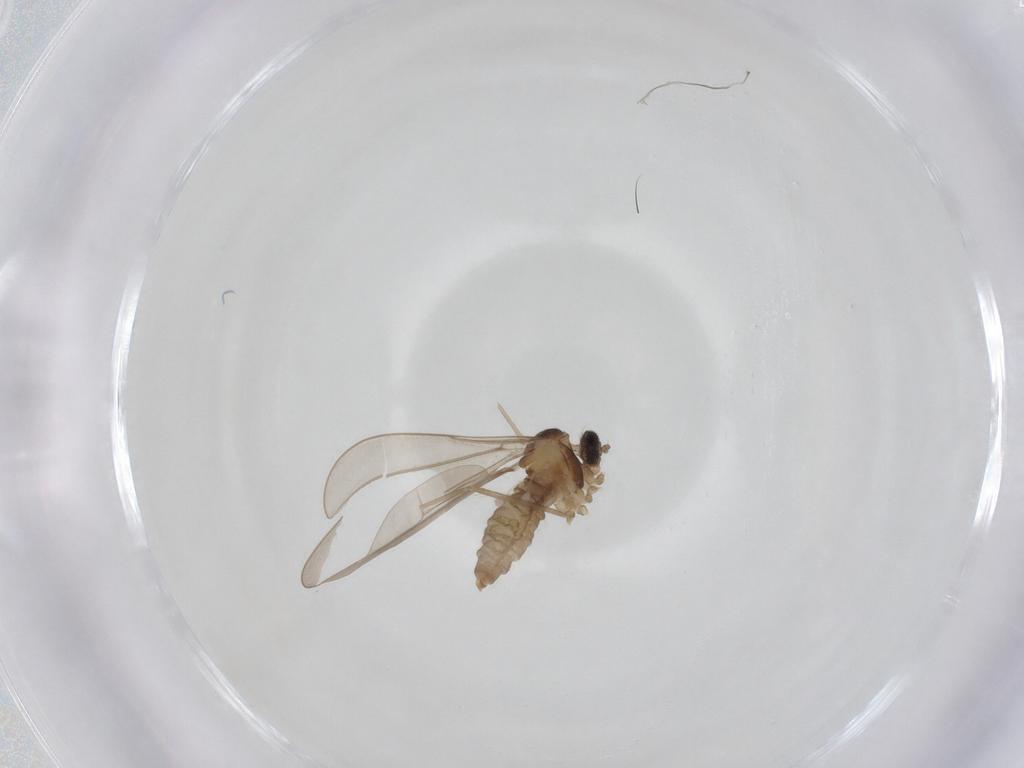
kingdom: Animalia
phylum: Arthropoda
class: Insecta
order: Diptera
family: Cecidomyiidae
